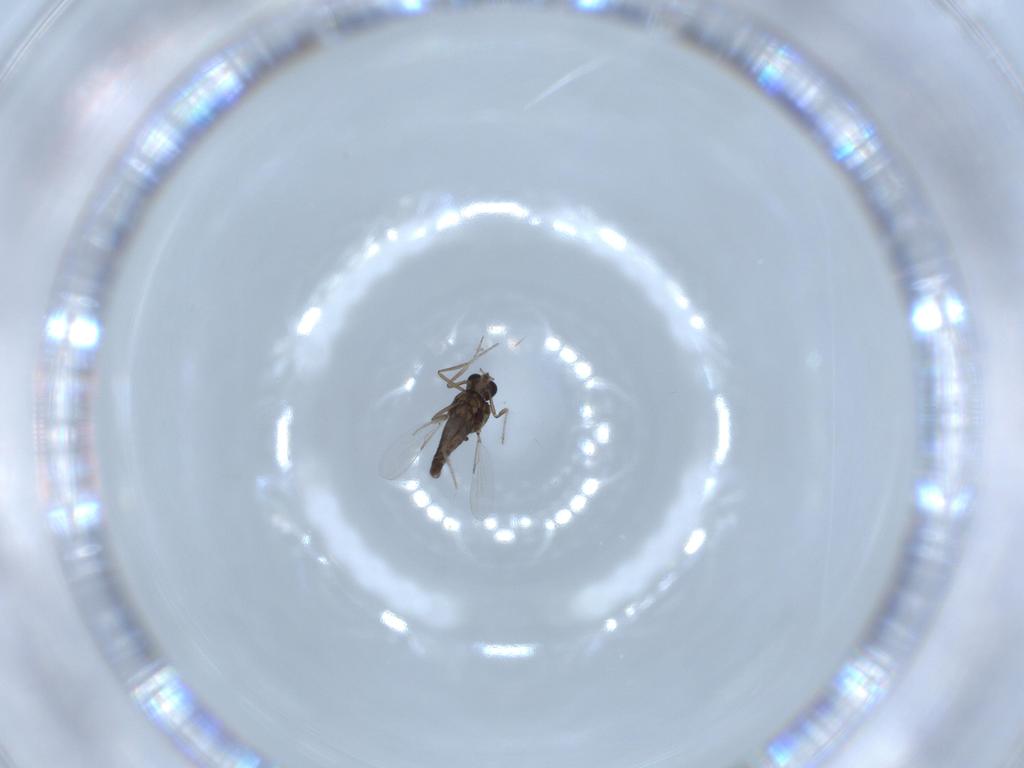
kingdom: Animalia
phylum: Arthropoda
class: Insecta
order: Diptera
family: Ceratopogonidae
